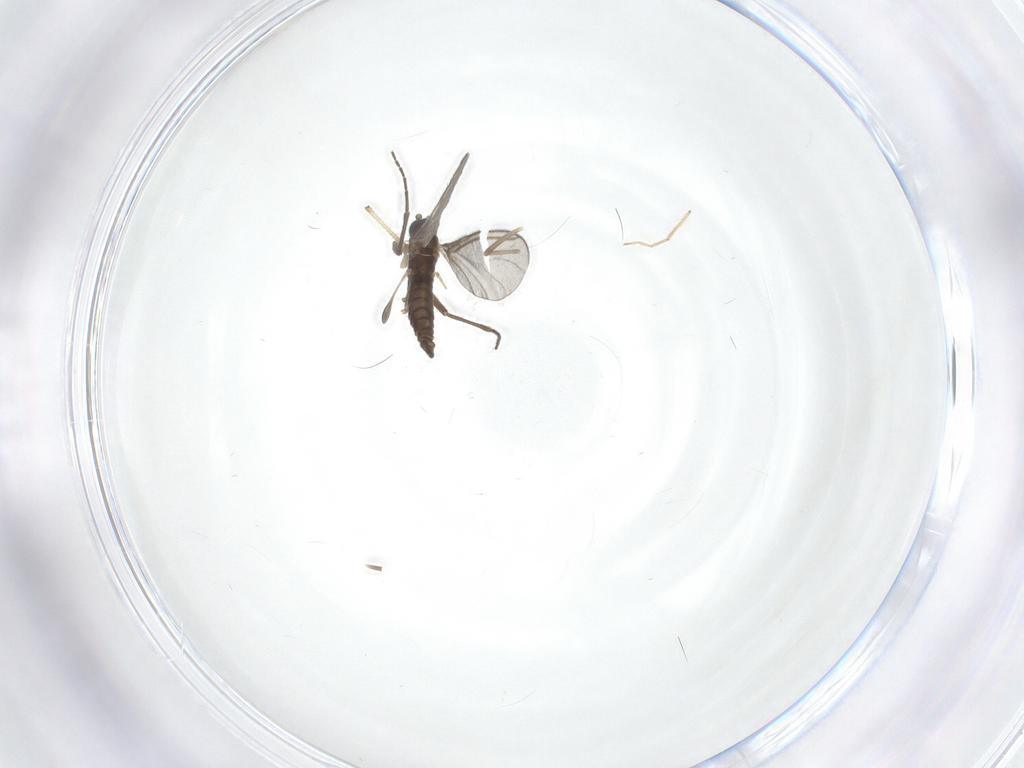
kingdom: Animalia
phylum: Arthropoda
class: Insecta
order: Diptera
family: Sciaridae
